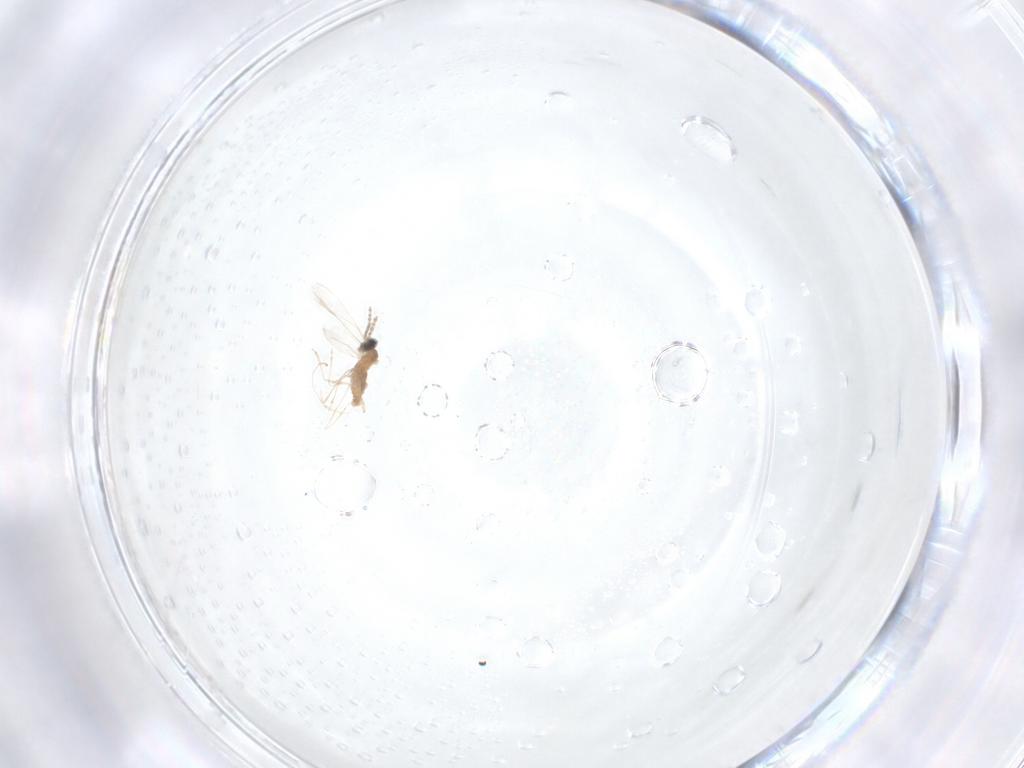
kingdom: Animalia
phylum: Arthropoda
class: Insecta
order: Diptera
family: Cecidomyiidae
